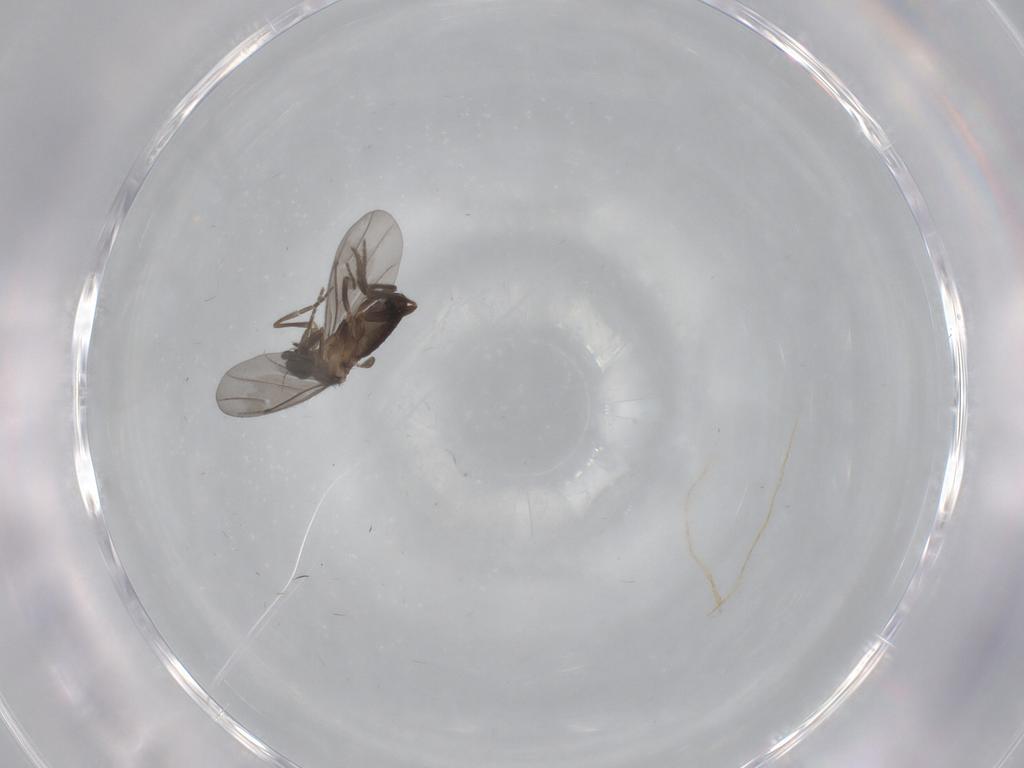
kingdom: Animalia
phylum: Arthropoda
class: Insecta
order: Diptera
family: Phoridae
